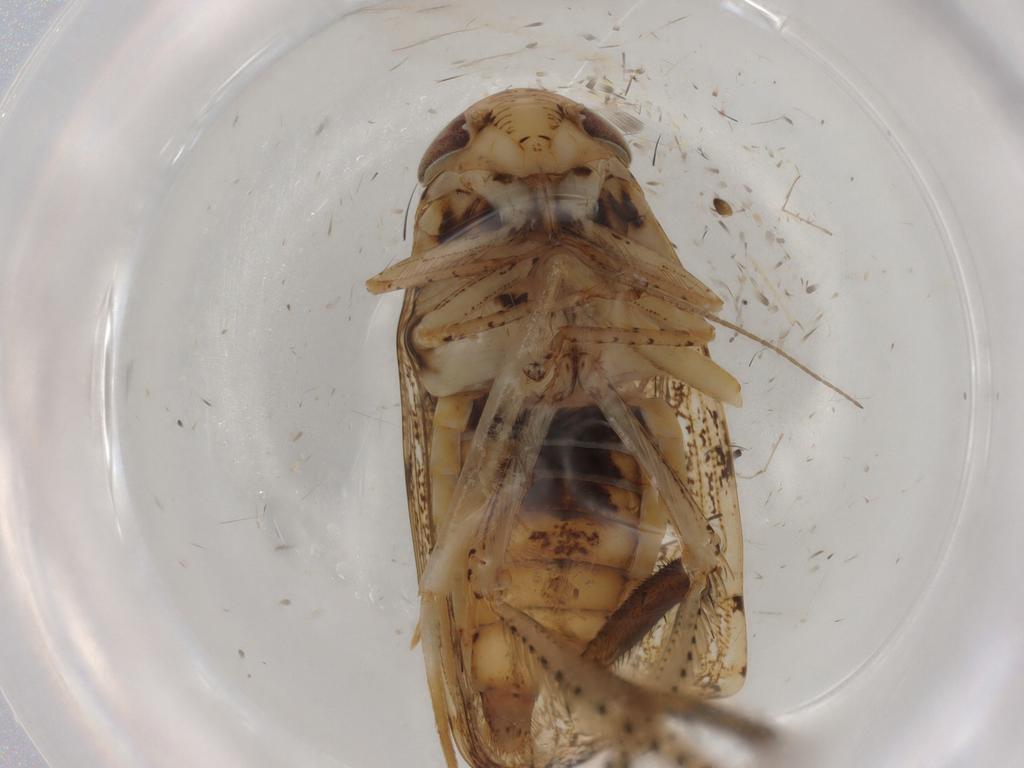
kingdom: Animalia
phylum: Arthropoda
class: Insecta
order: Hemiptera
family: Cicadellidae
